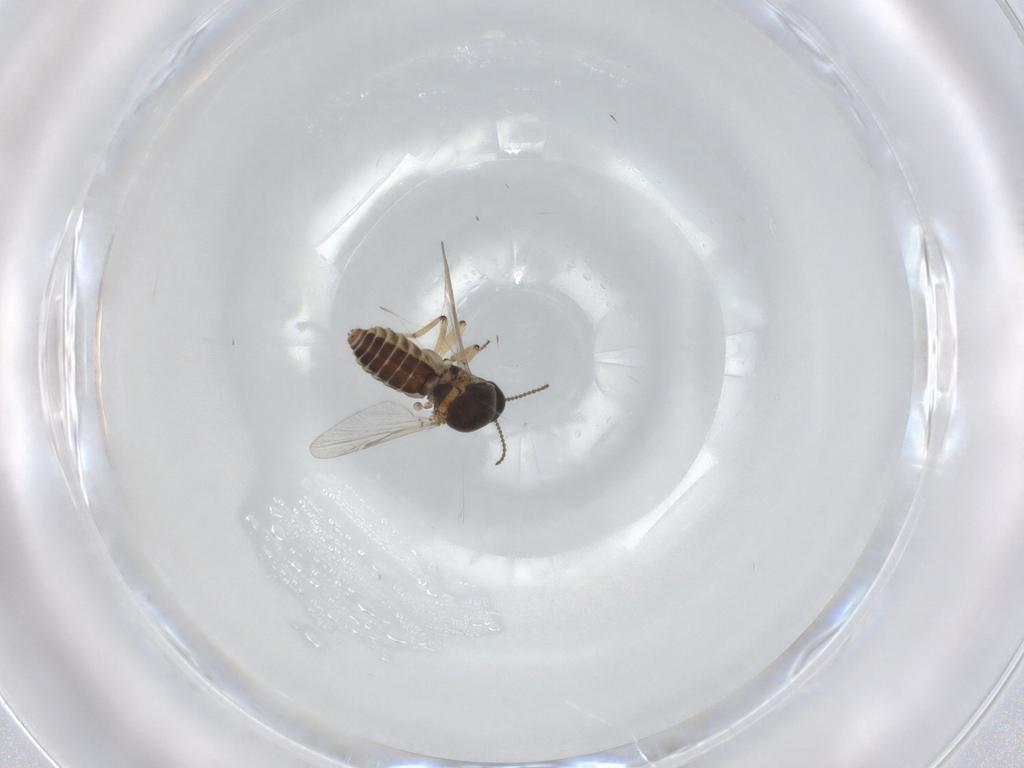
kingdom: Animalia
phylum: Arthropoda
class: Insecta
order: Diptera
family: Ceratopogonidae
